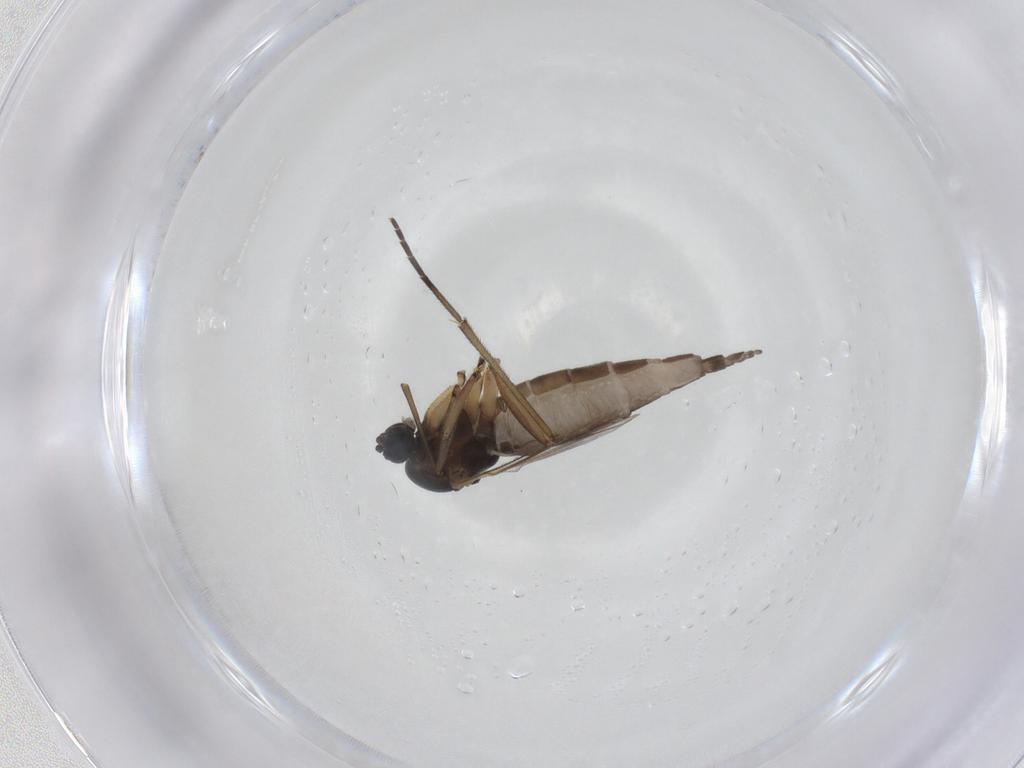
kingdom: Animalia
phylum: Arthropoda
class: Insecta
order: Diptera
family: Sciaridae
